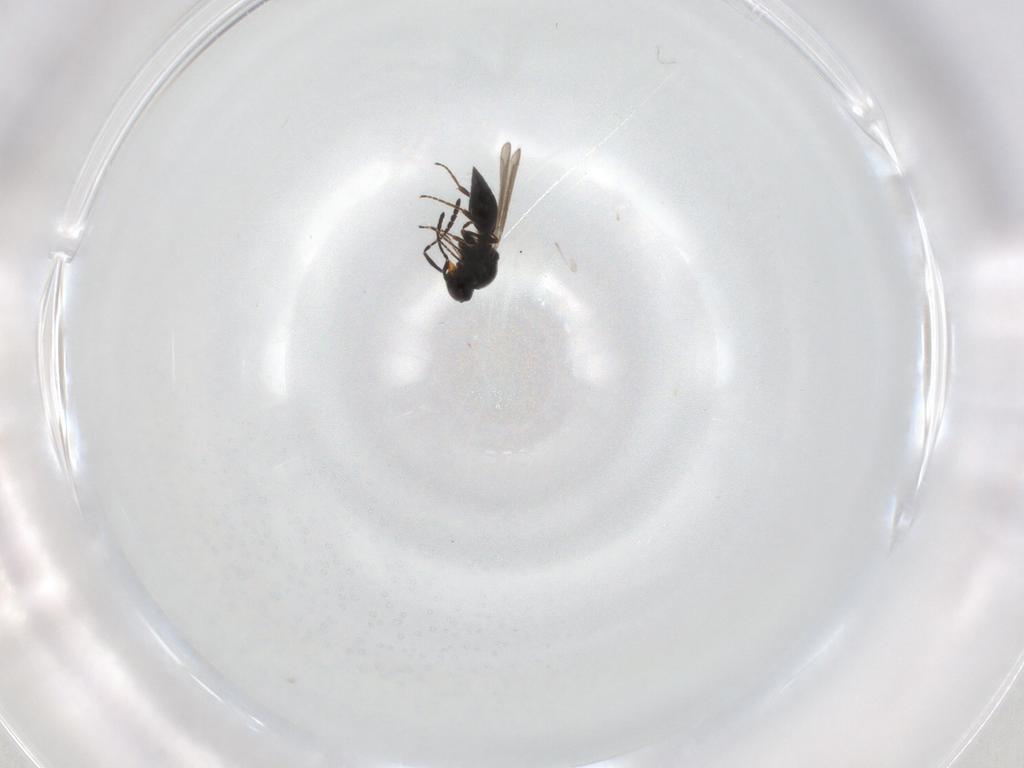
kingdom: Animalia
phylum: Arthropoda
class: Insecta
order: Hymenoptera
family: Platygastridae
